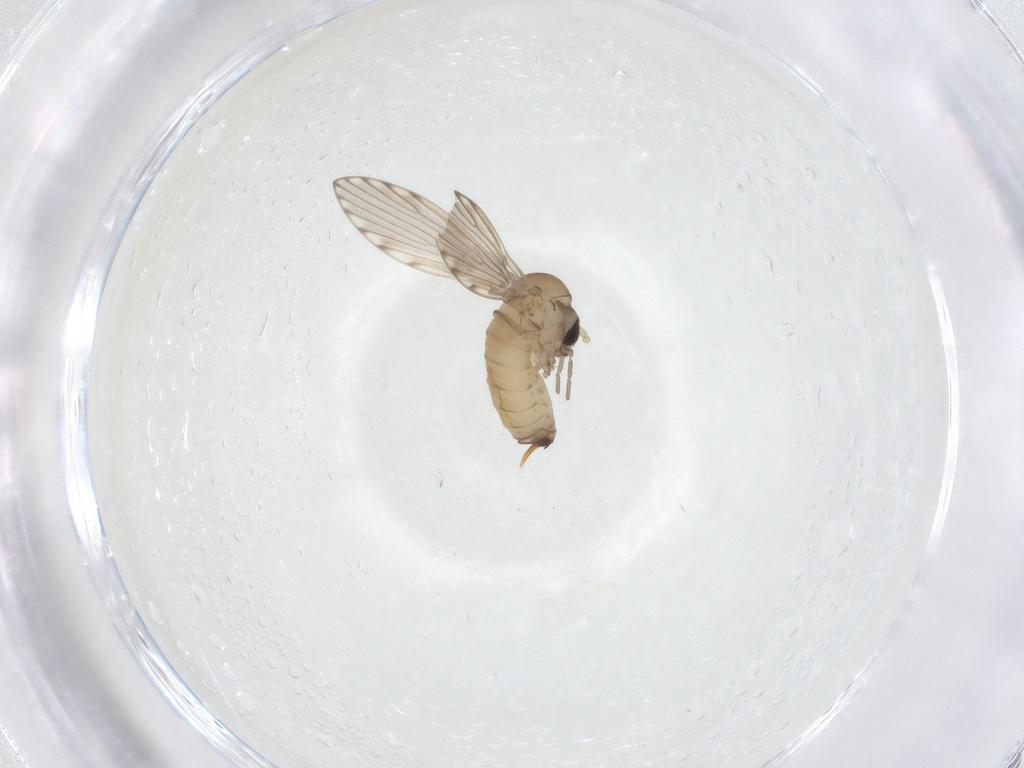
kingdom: Animalia
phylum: Arthropoda
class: Insecta
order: Diptera
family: Psychodidae
